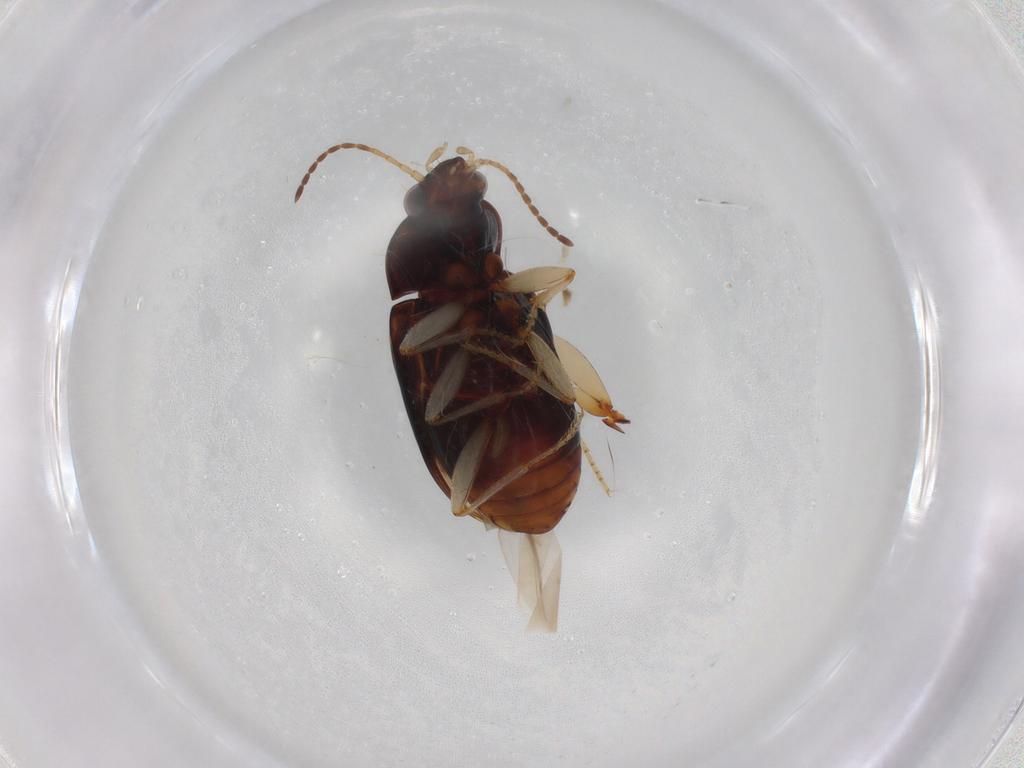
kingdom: Animalia
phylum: Arthropoda
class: Insecta
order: Coleoptera
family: Carabidae
